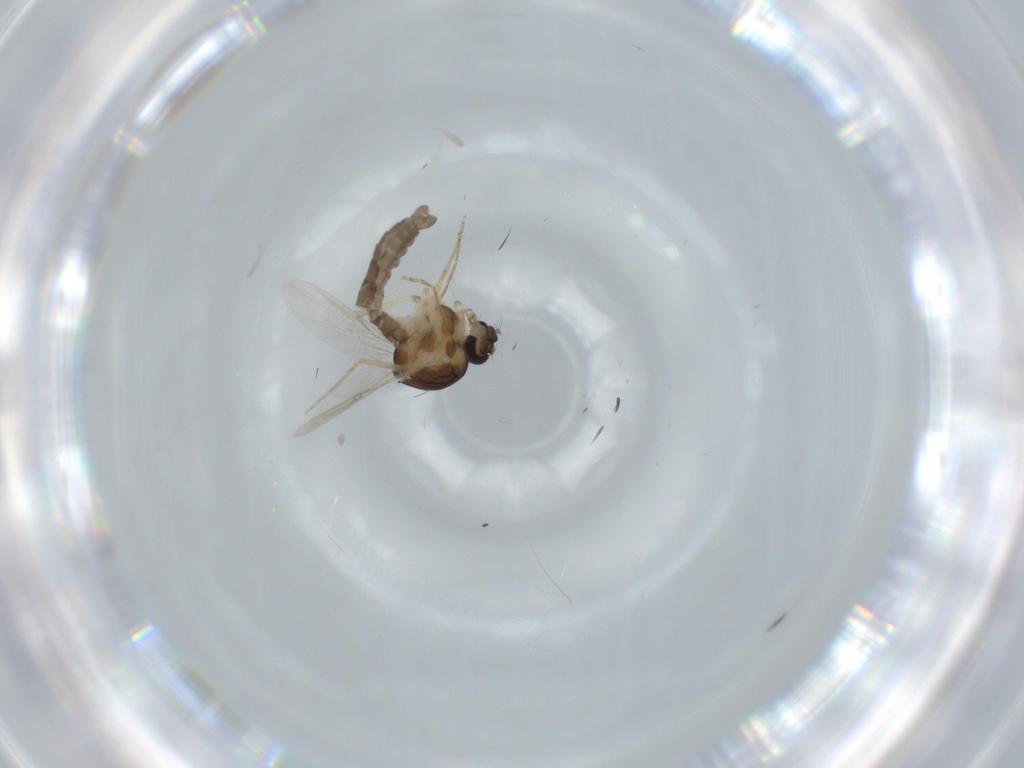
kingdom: Animalia
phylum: Arthropoda
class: Insecta
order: Diptera
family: Ceratopogonidae
